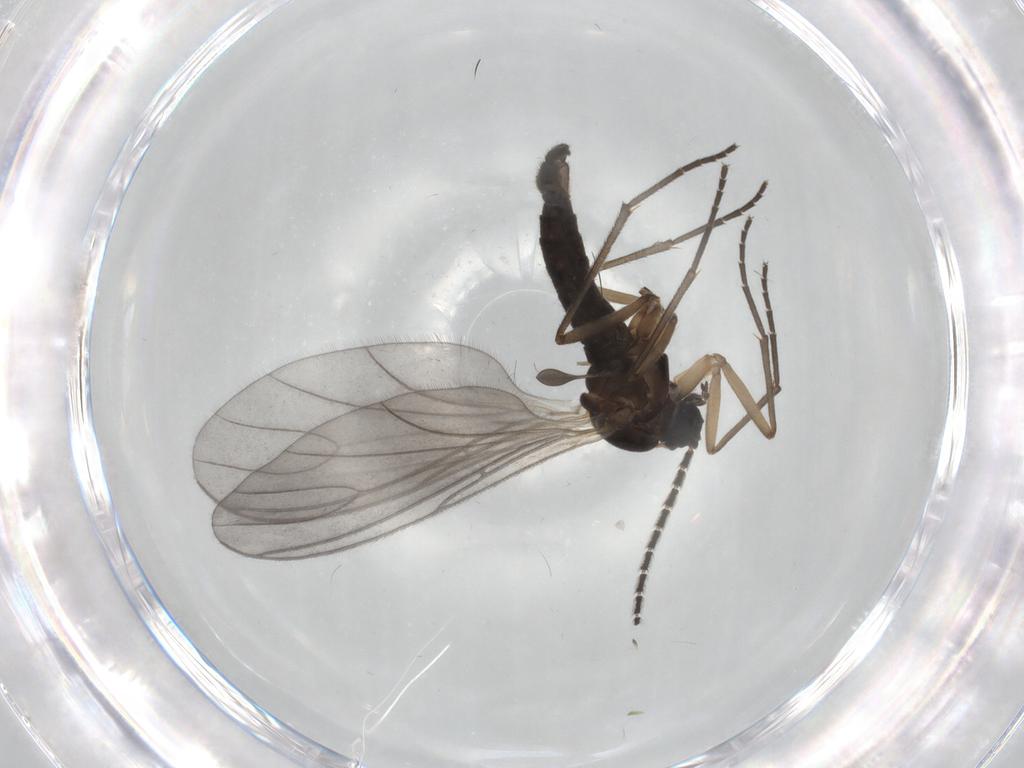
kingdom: Animalia
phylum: Arthropoda
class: Insecta
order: Diptera
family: Sciaridae
